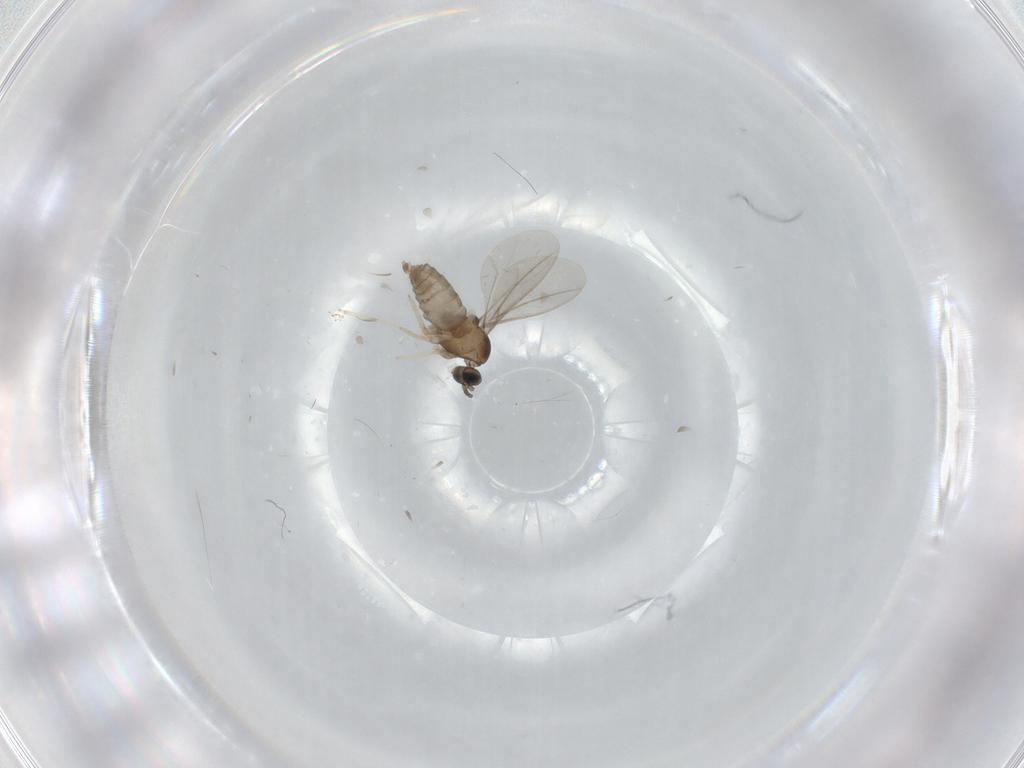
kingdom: Animalia
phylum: Arthropoda
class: Insecta
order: Diptera
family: Cecidomyiidae
